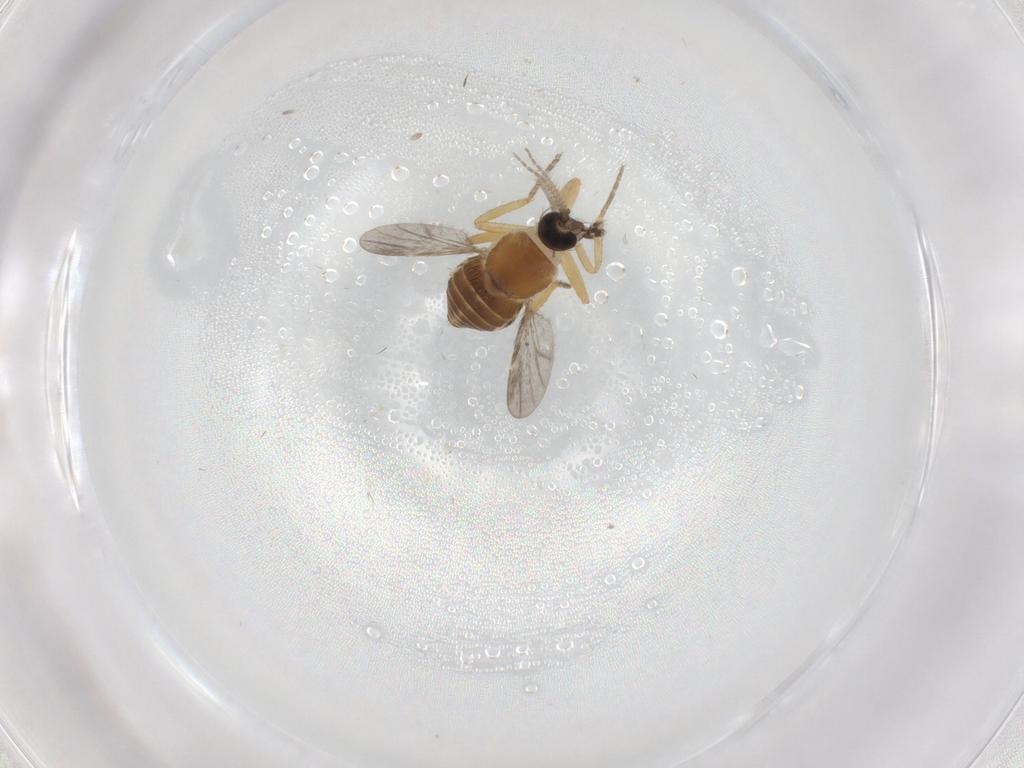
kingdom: Animalia
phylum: Arthropoda
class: Insecta
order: Diptera
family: Ceratopogonidae
